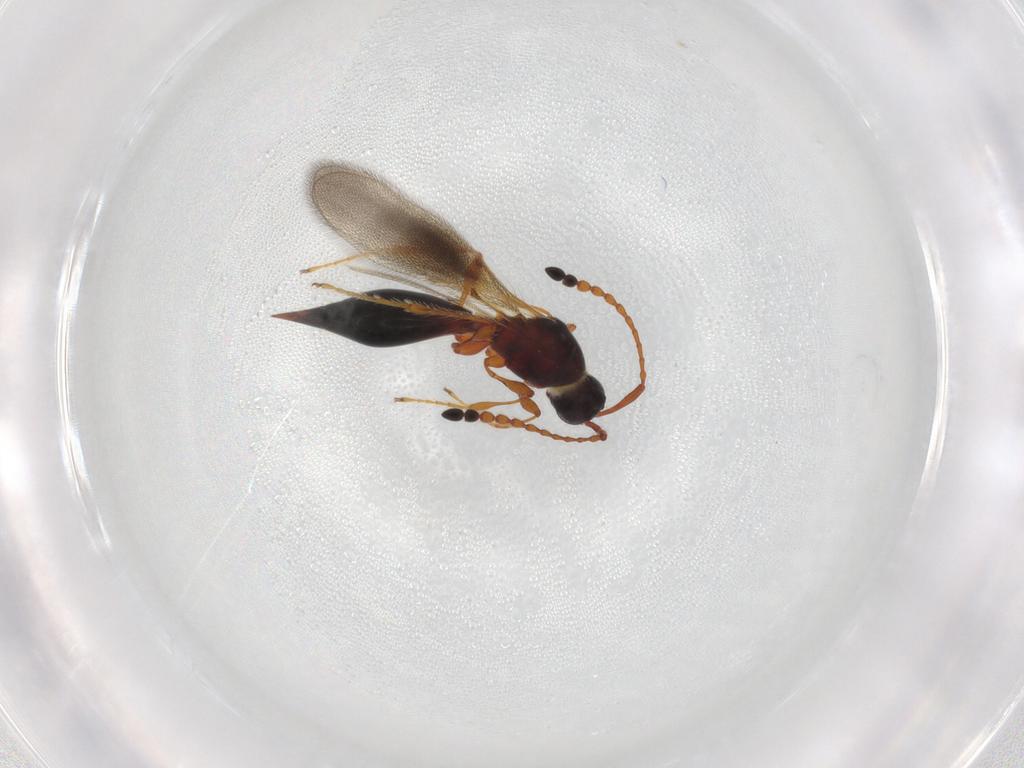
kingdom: Animalia
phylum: Arthropoda
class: Insecta
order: Hymenoptera
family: Diapriidae
